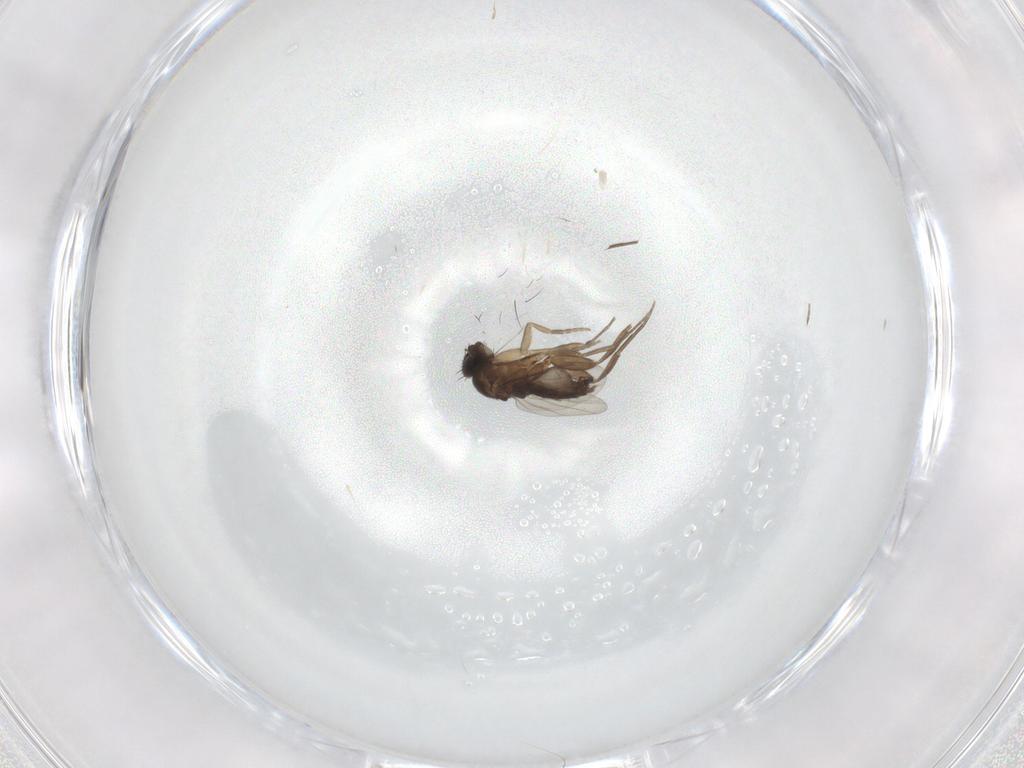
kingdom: Animalia
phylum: Arthropoda
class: Insecta
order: Diptera
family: Phoridae
